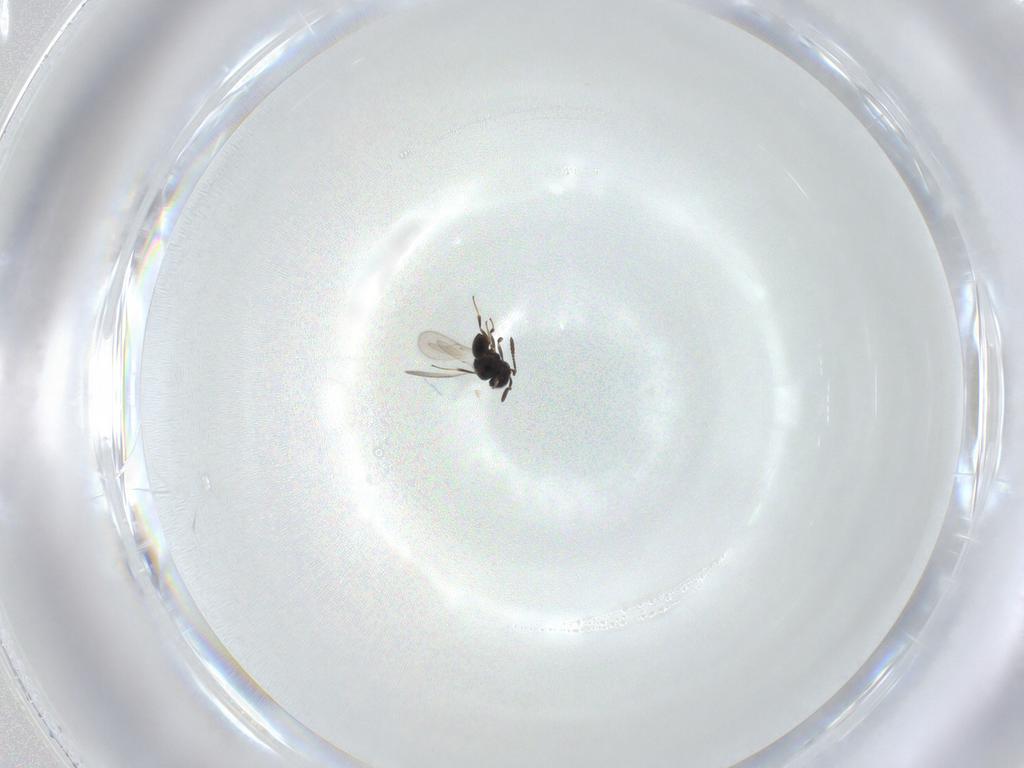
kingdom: Animalia
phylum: Arthropoda
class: Insecta
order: Hymenoptera
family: Scelionidae
